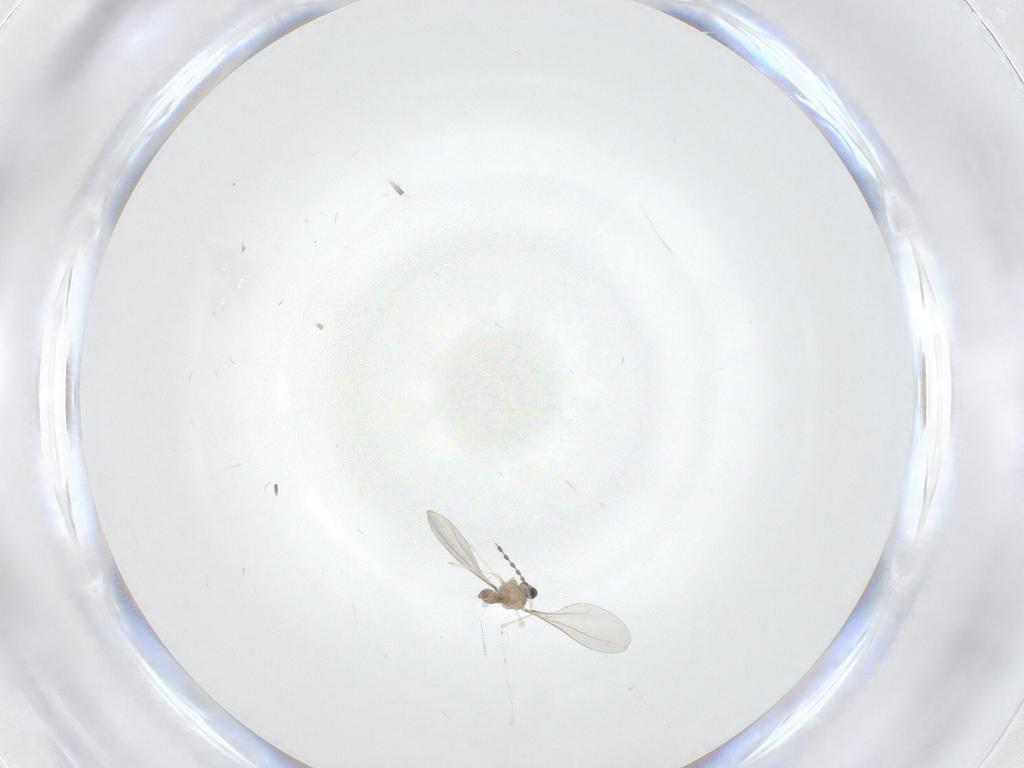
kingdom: Animalia
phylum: Arthropoda
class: Insecta
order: Diptera
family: Cecidomyiidae
